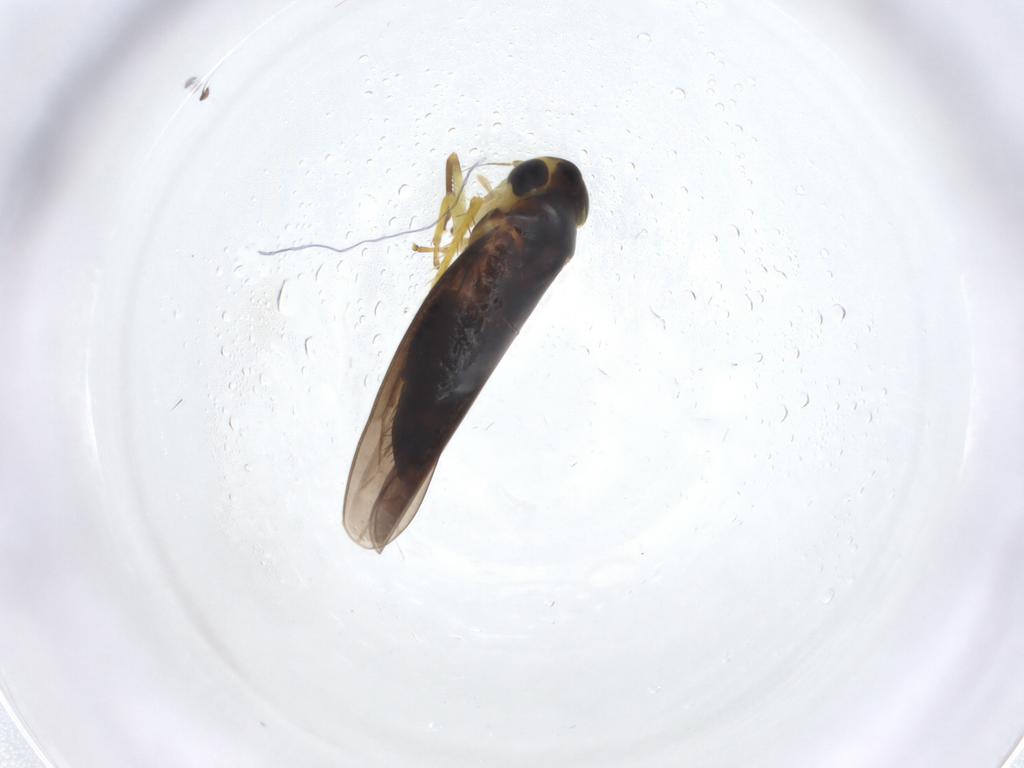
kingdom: Animalia
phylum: Arthropoda
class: Insecta
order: Hemiptera
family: Cicadellidae
